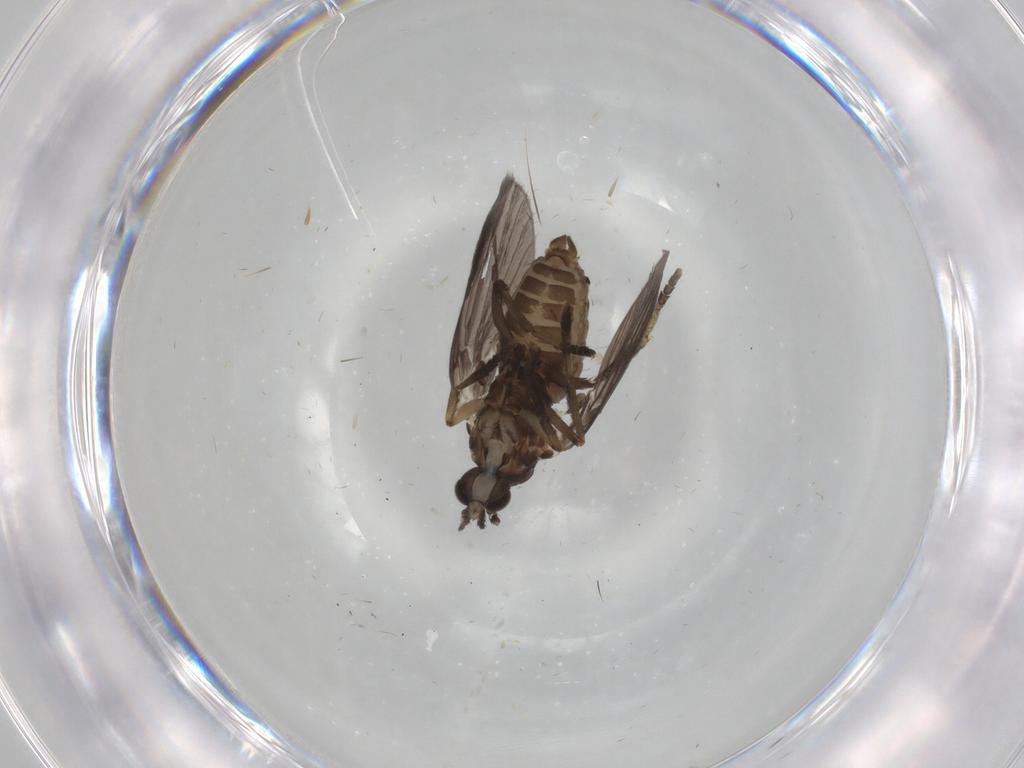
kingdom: Animalia
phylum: Arthropoda
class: Insecta
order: Diptera
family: Sciaridae
